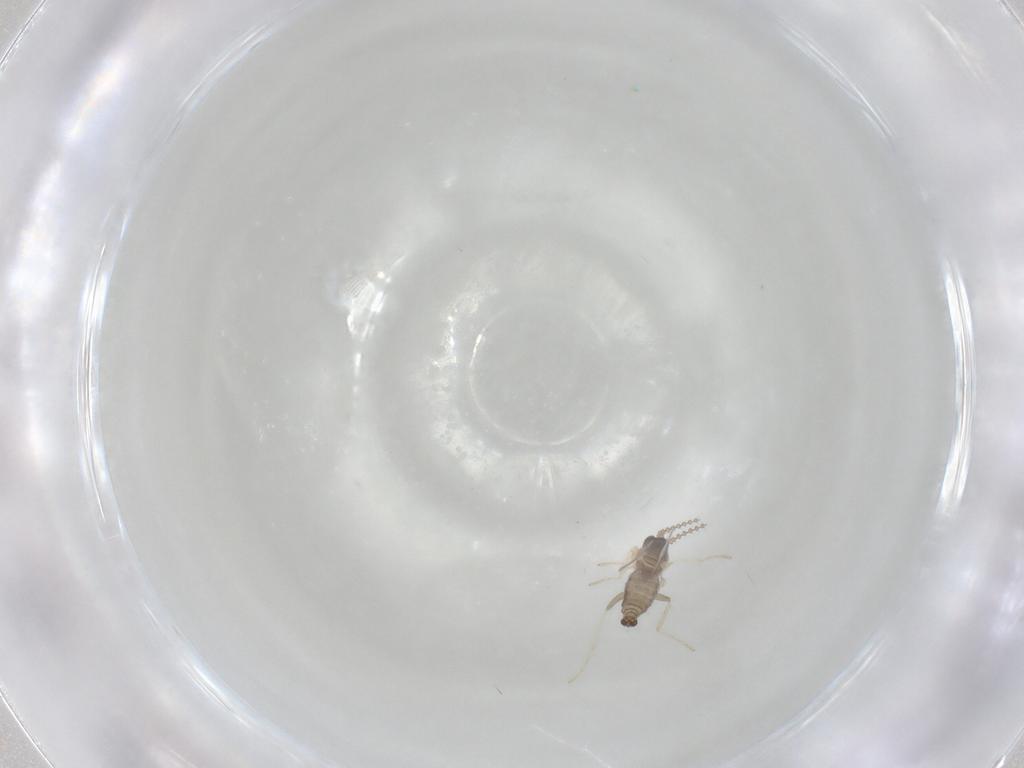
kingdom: Animalia
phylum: Arthropoda
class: Insecta
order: Diptera
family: Cecidomyiidae
